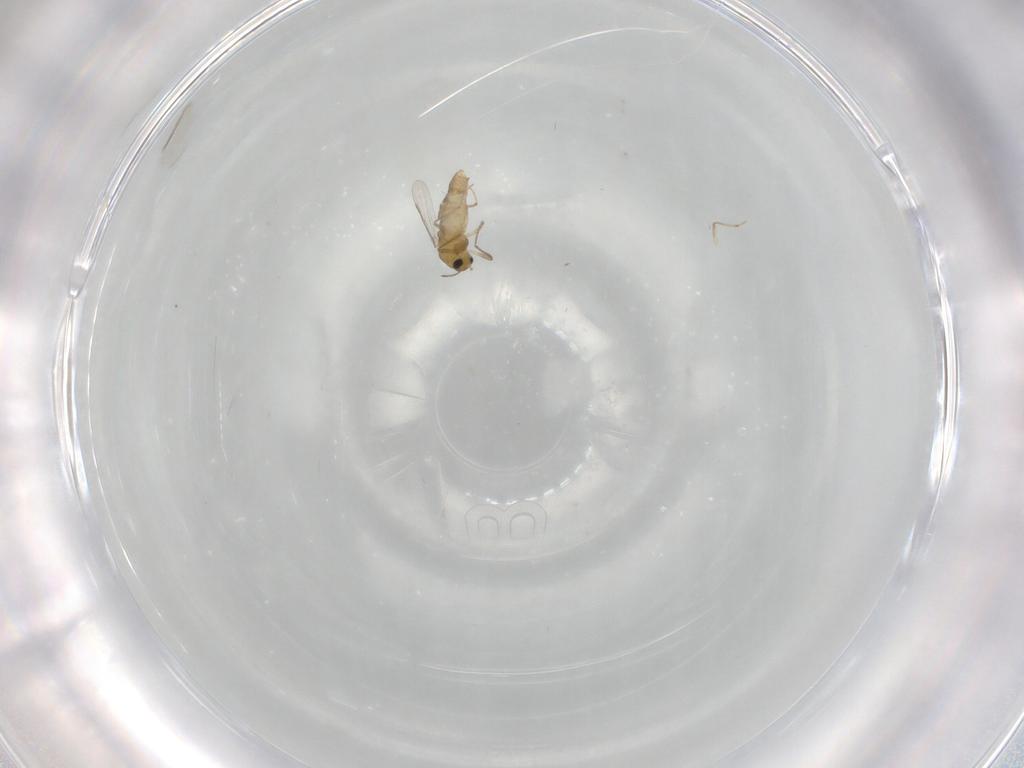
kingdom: Animalia
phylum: Arthropoda
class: Insecta
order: Diptera
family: Chironomidae
